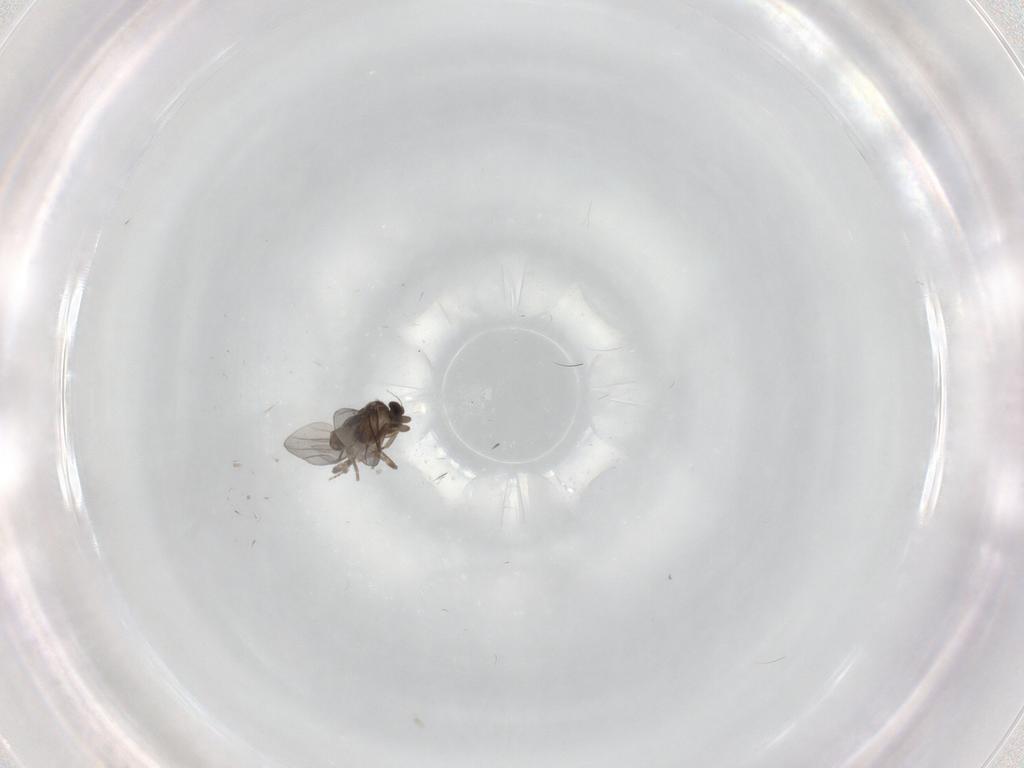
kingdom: Animalia
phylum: Arthropoda
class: Insecta
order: Diptera
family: Cecidomyiidae
